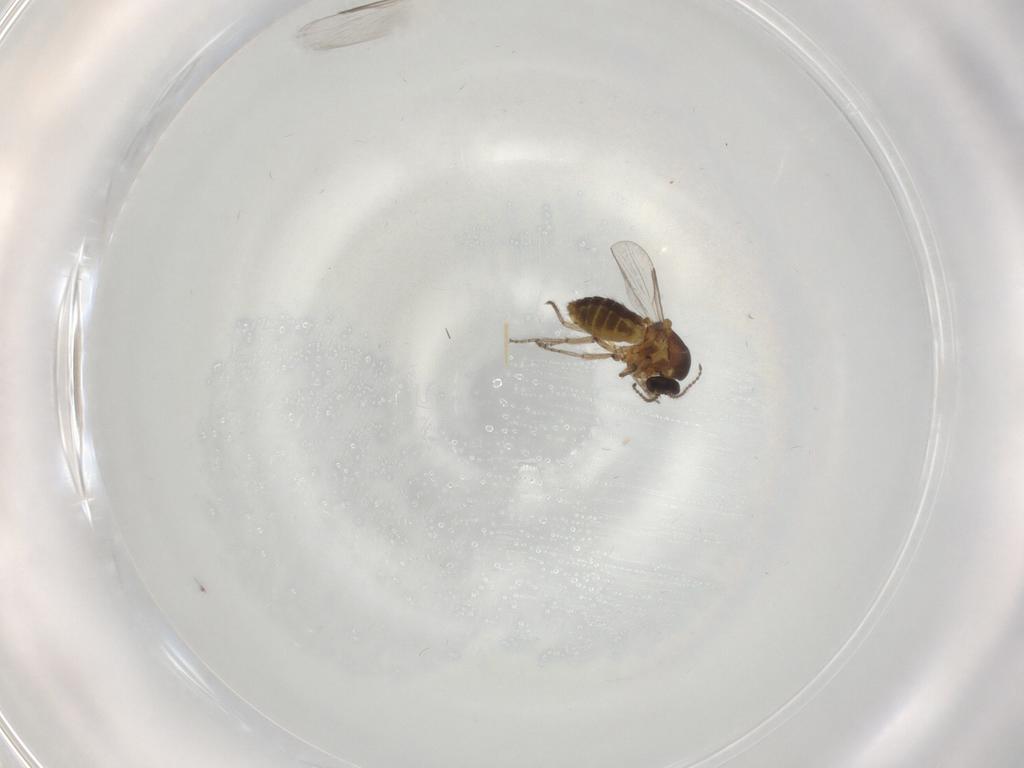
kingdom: Animalia
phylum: Arthropoda
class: Insecta
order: Diptera
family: Ceratopogonidae
